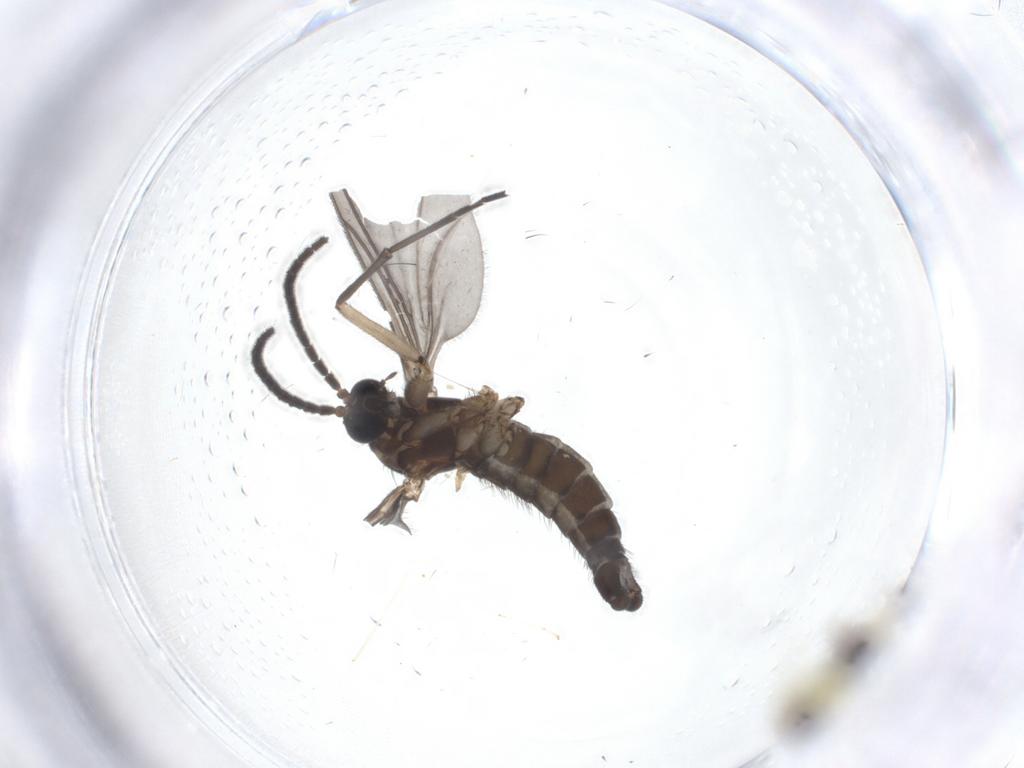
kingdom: Animalia
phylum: Arthropoda
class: Insecta
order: Diptera
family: Sciaridae
